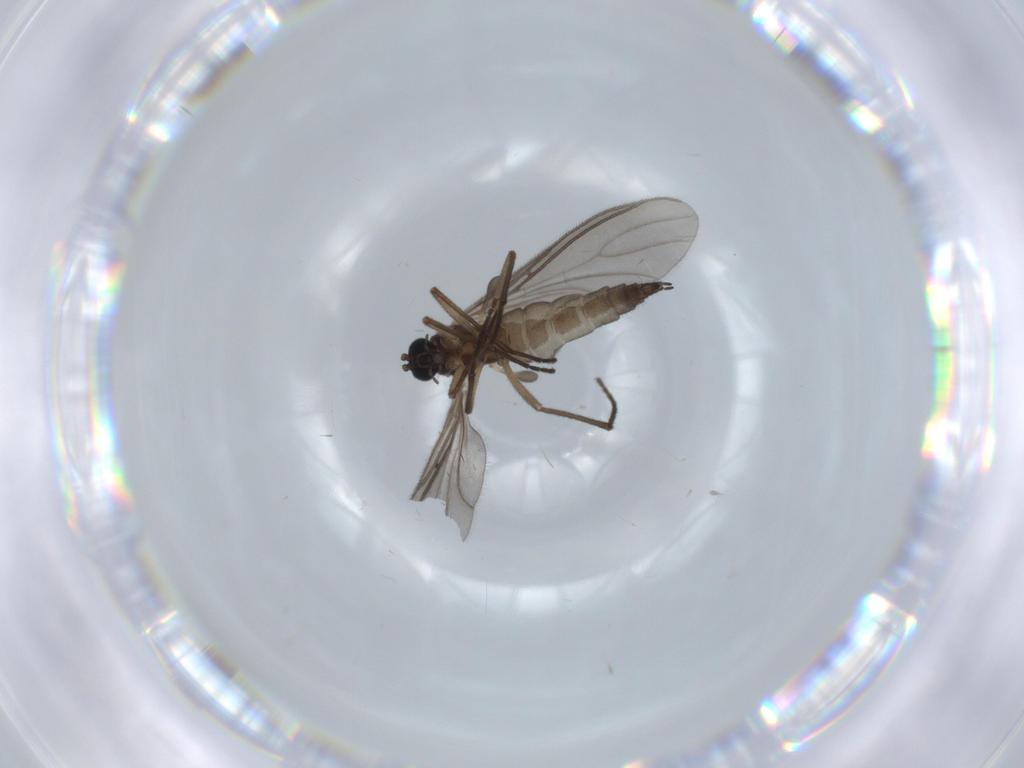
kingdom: Animalia
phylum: Arthropoda
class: Insecta
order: Diptera
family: Sciaridae
